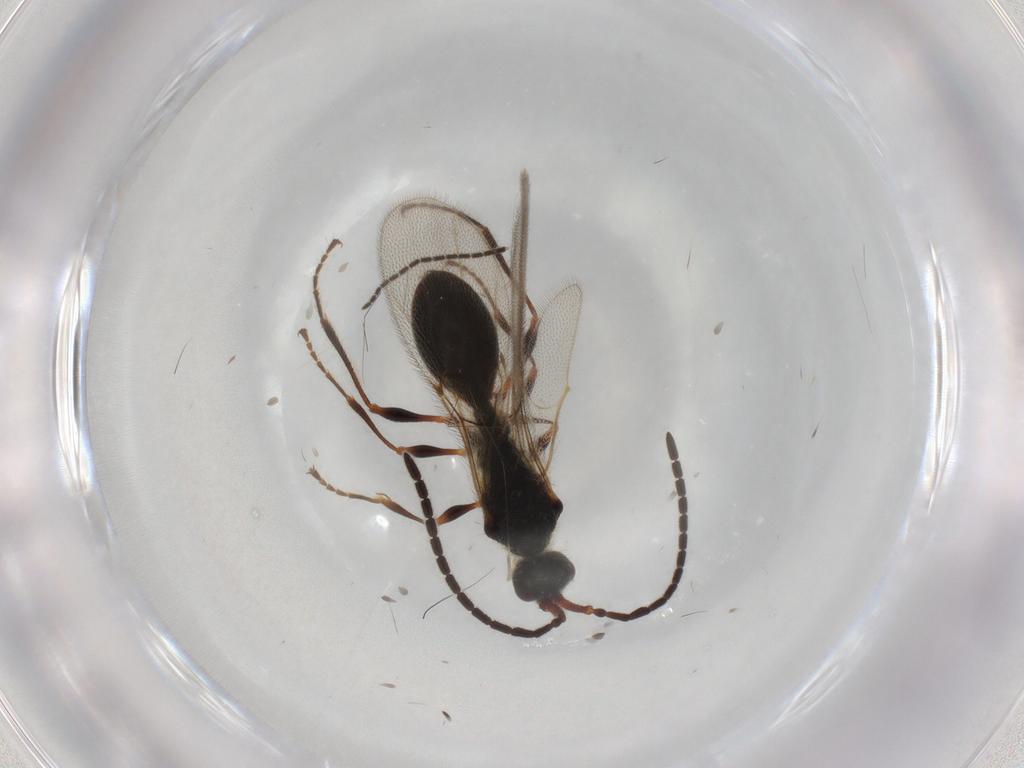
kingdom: Animalia
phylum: Arthropoda
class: Insecta
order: Hymenoptera
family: Diapriidae
